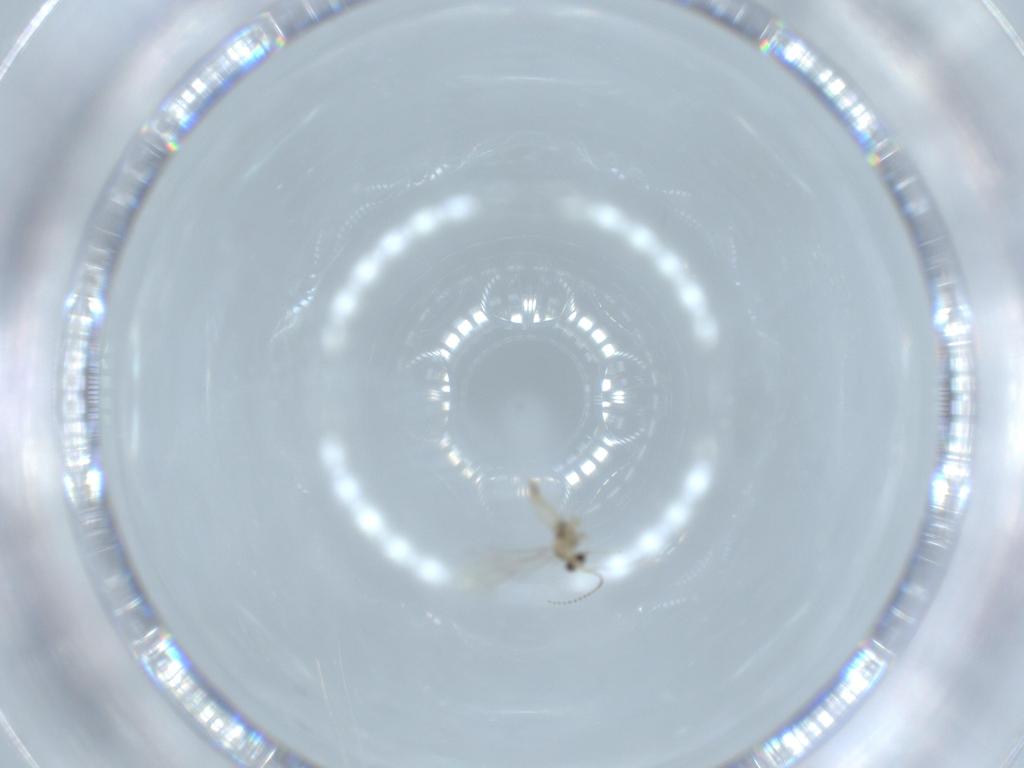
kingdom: Animalia
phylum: Arthropoda
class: Insecta
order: Diptera
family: Cecidomyiidae
